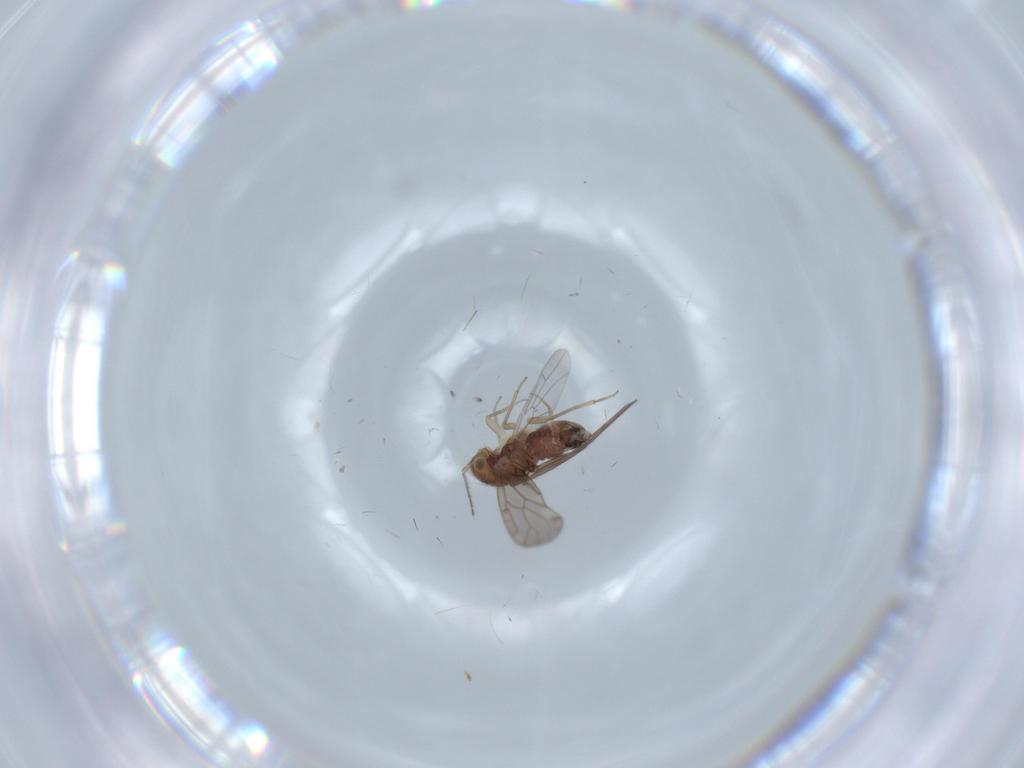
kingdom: Animalia
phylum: Arthropoda
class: Insecta
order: Psocodea
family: Ectopsocidae
